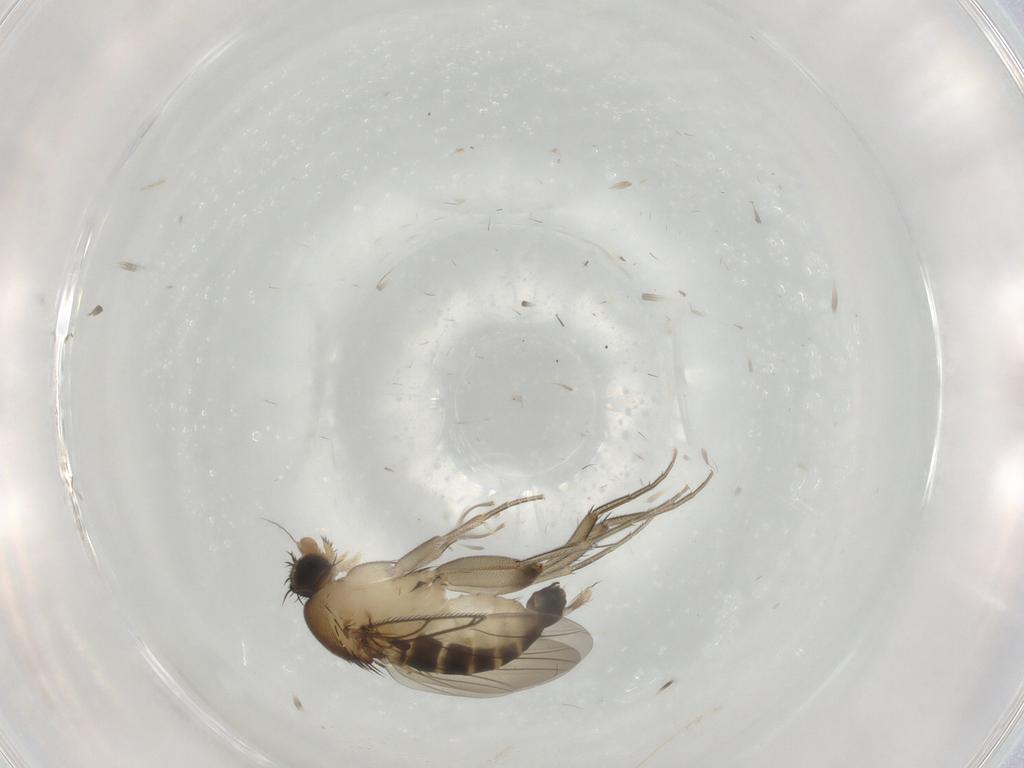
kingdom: Animalia
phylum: Arthropoda
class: Insecta
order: Diptera
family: Phoridae
